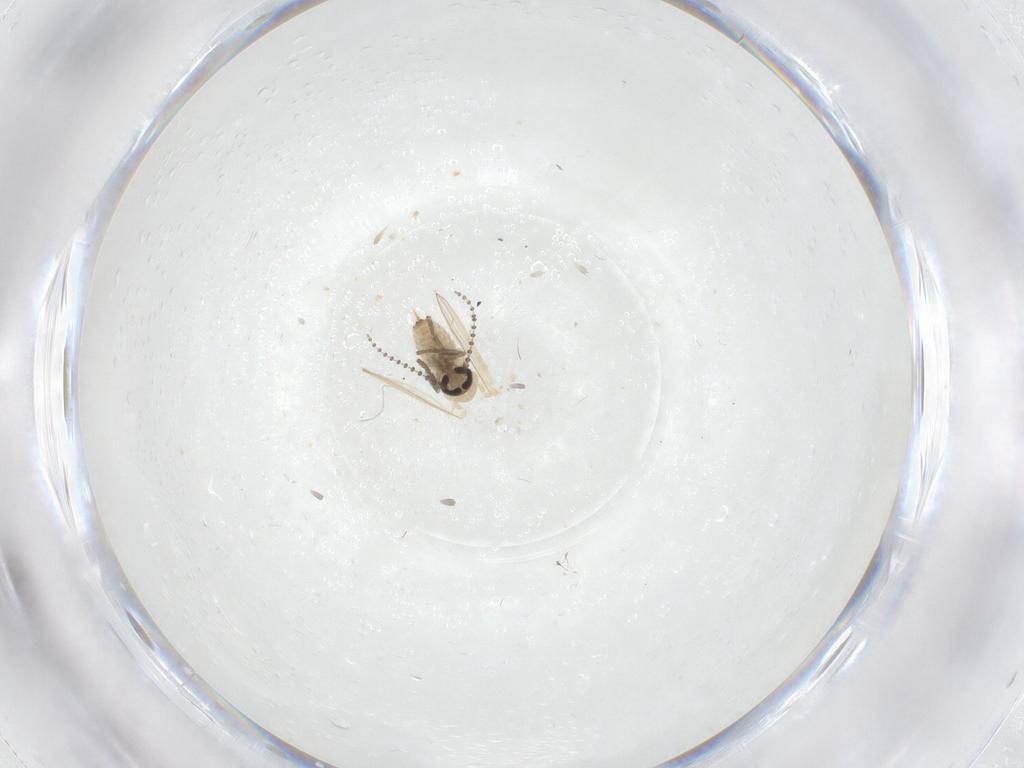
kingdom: Animalia
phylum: Arthropoda
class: Insecta
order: Diptera
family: Psychodidae
